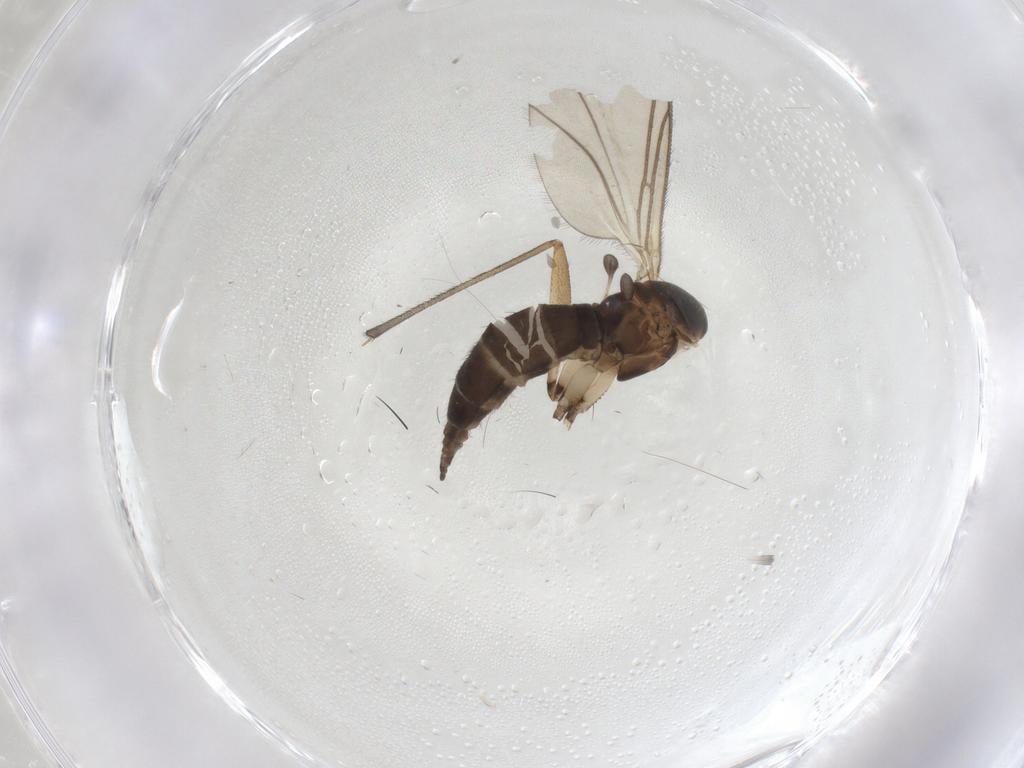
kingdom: Animalia
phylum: Arthropoda
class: Insecta
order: Diptera
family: Sciaridae
